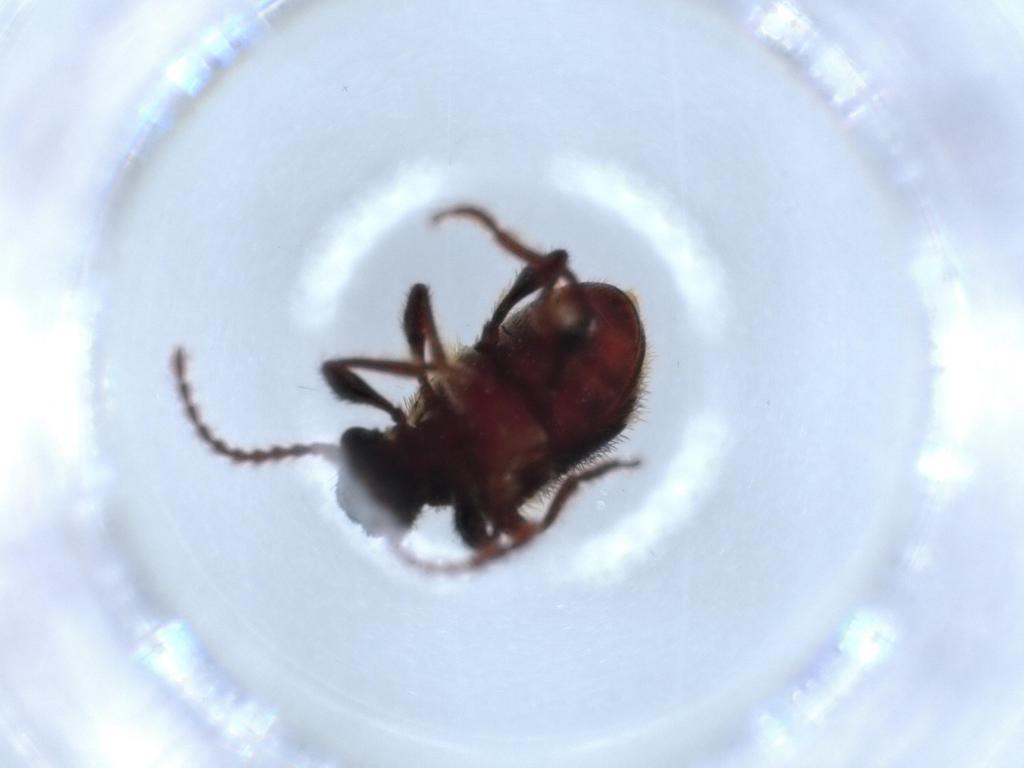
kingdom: Animalia
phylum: Arthropoda
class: Insecta
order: Coleoptera
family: Ptinidae
